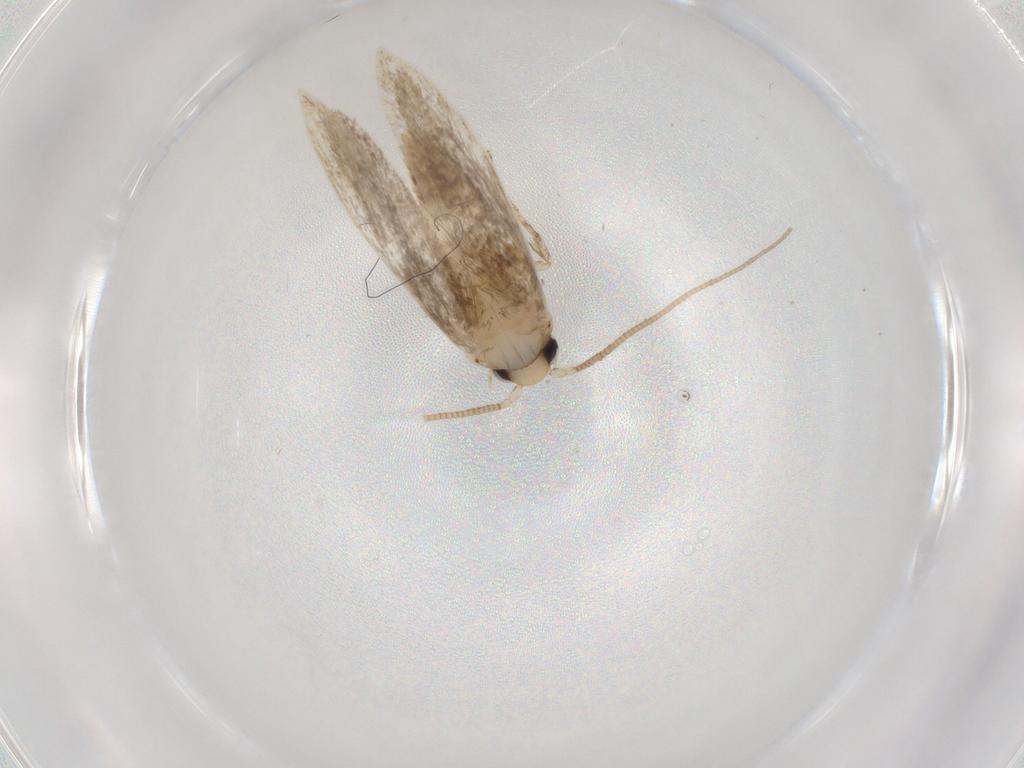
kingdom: Animalia
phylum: Arthropoda
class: Insecta
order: Lepidoptera
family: Tineidae
